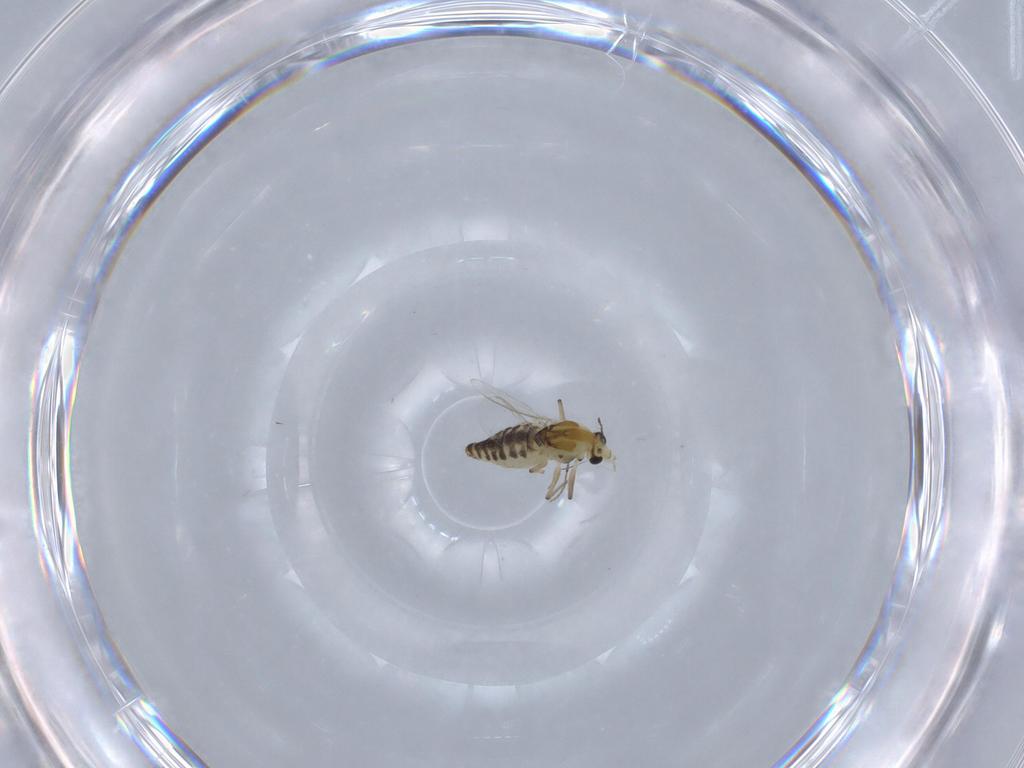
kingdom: Animalia
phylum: Arthropoda
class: Insecta
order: Diptera
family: Chironomidae
